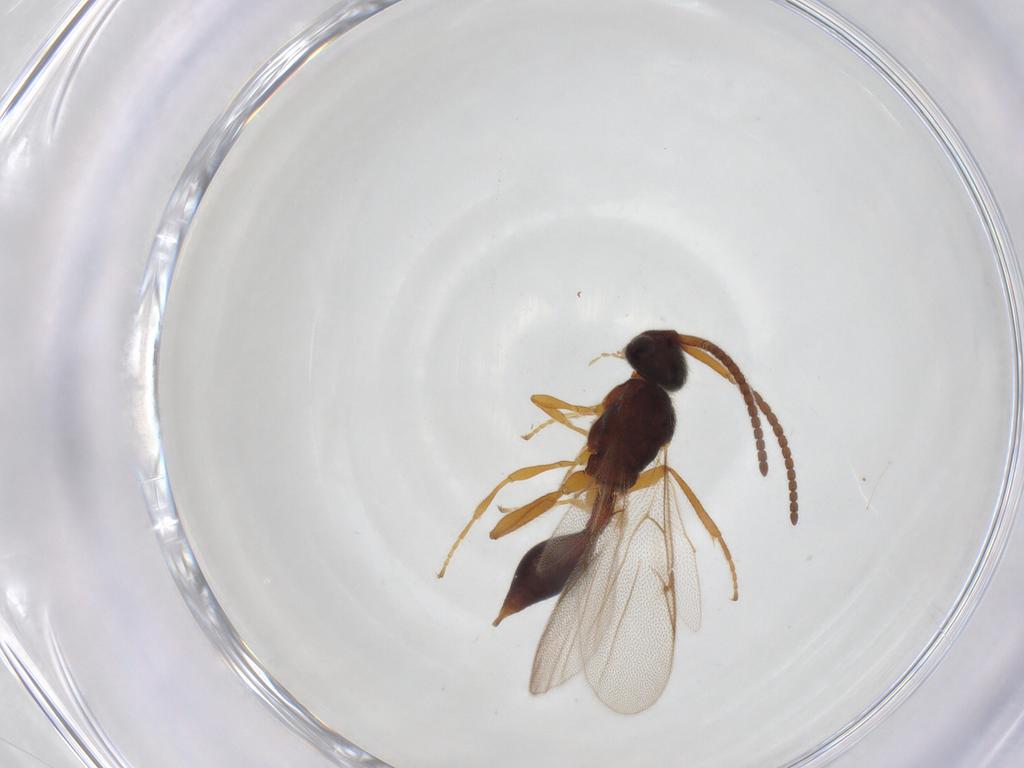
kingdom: Animalia
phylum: Arthropoda
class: Insecta
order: Hymenoptera
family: Diapriidae
